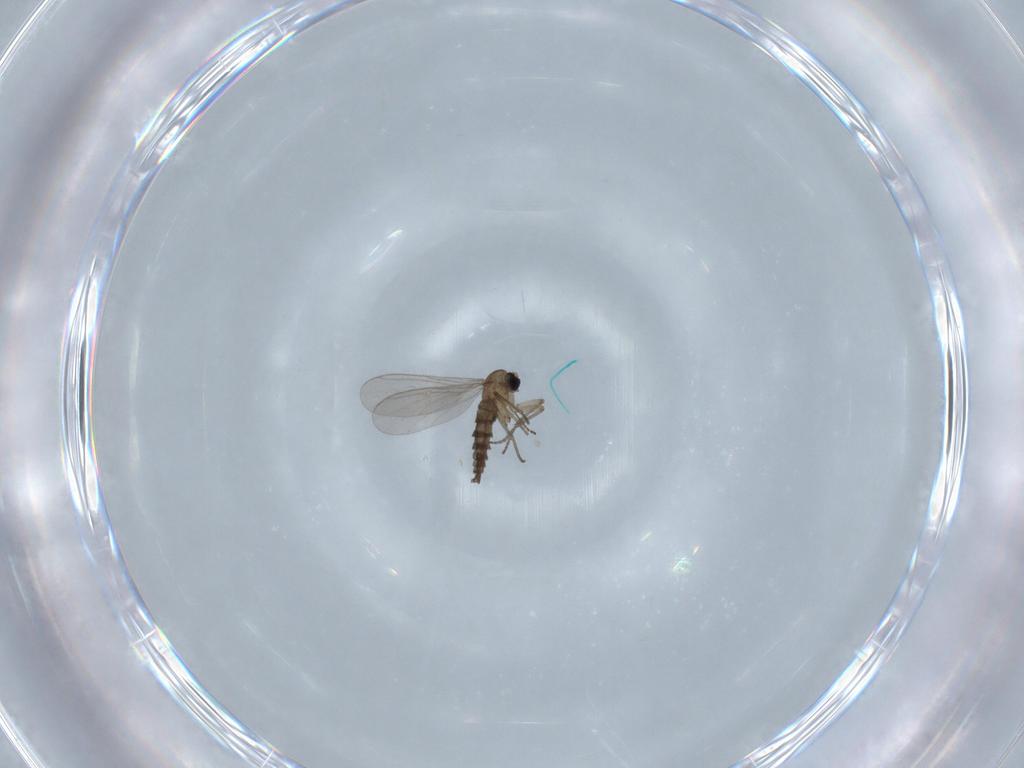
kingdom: Animalia
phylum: Arthropoda
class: Insecta
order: Diptera
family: Sciaridae
